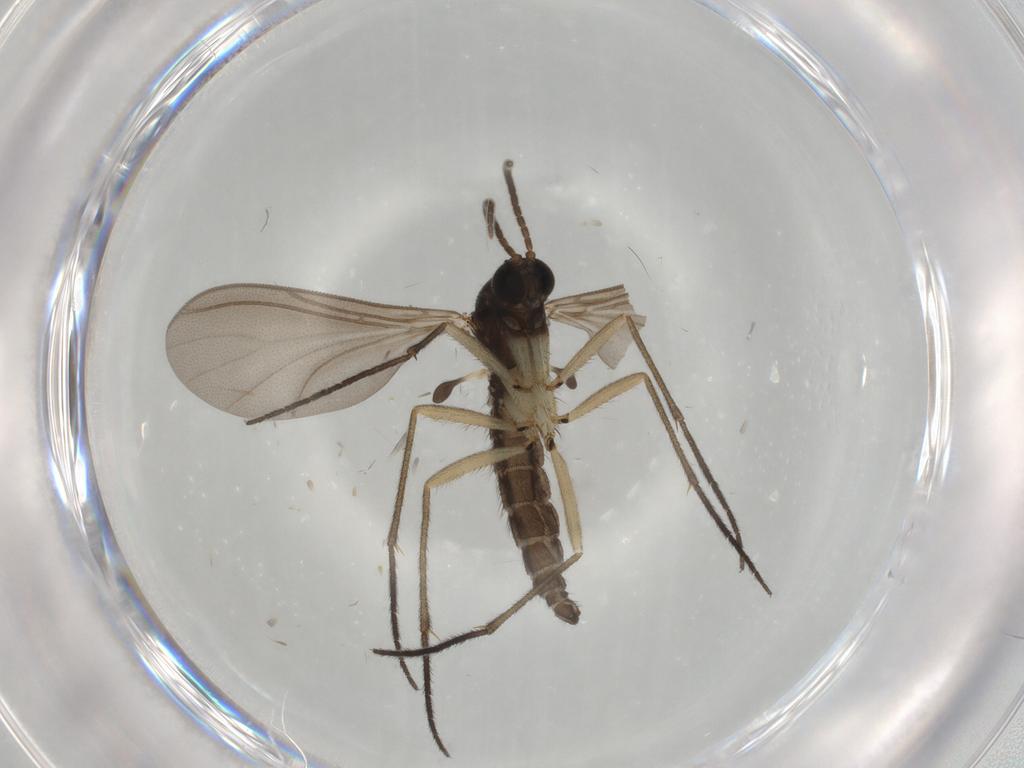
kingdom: Animalia
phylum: Arthropoda
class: Insecta
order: Diptera
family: Sciaridae
